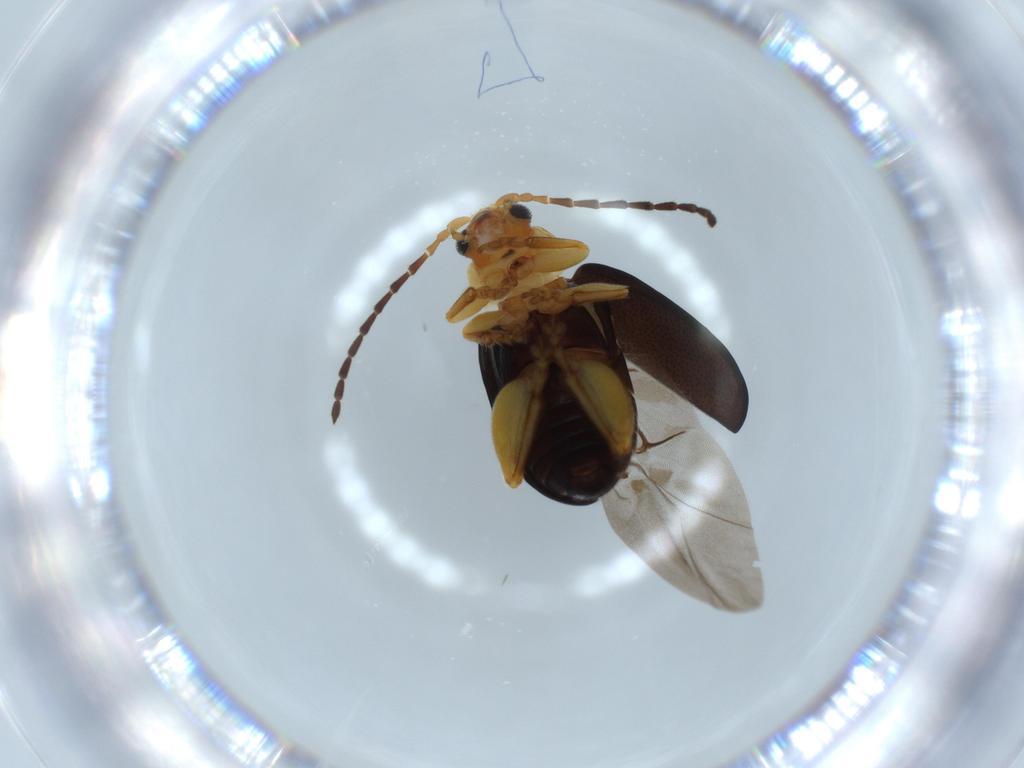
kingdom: Animalia
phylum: Arthropoda
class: Insecta
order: Coleoptera
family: Chrysomelidae
